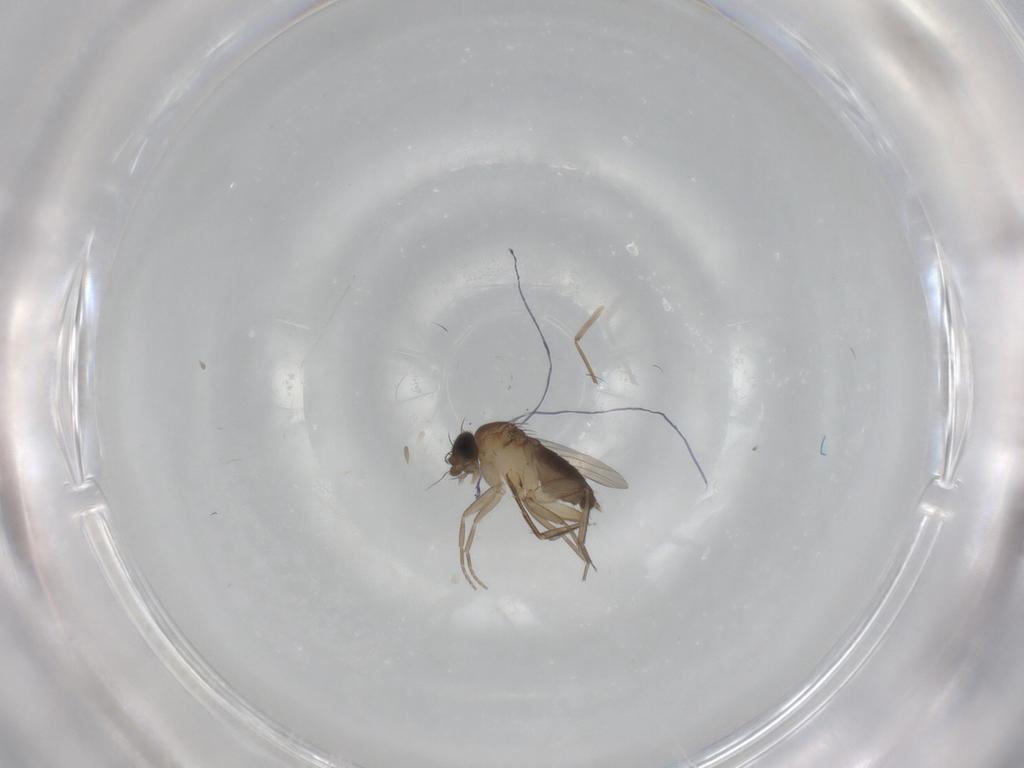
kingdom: Animalia
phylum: Arthropoda
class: Insecta
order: Diptera
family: Phoridae
